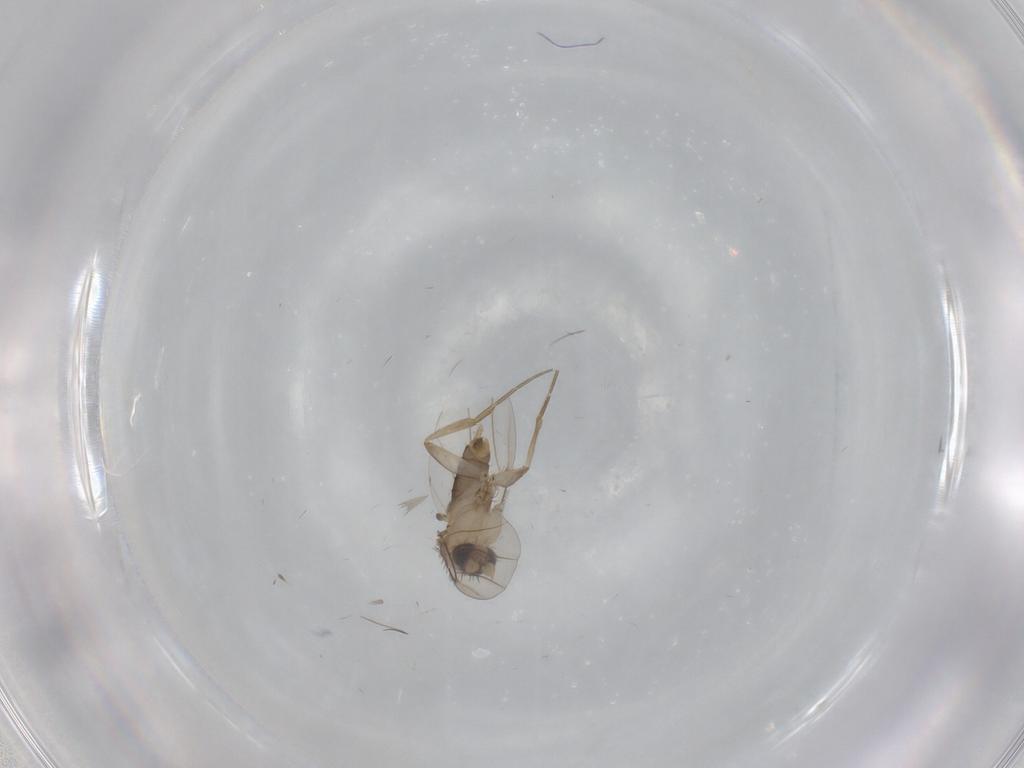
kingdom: Animalia
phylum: Arthropoda
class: Insecta
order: Diptera
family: Phoridae
